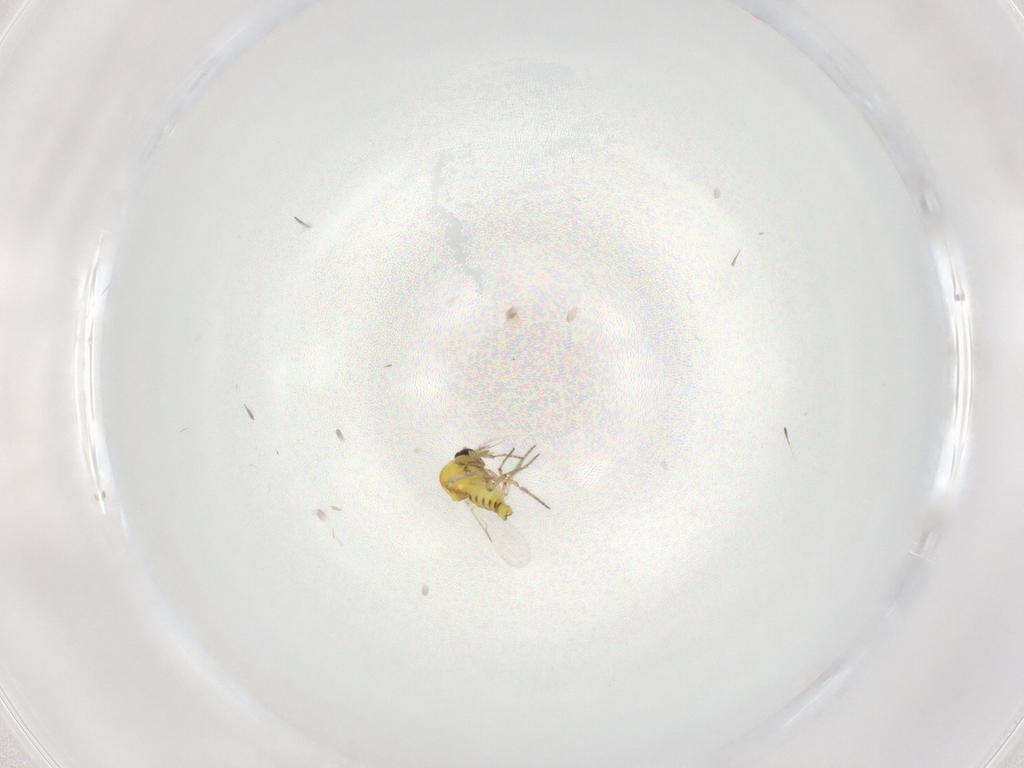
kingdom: Animalia
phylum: Arthropoda
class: Insecta
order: Diptera
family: Ceratopogonidae
